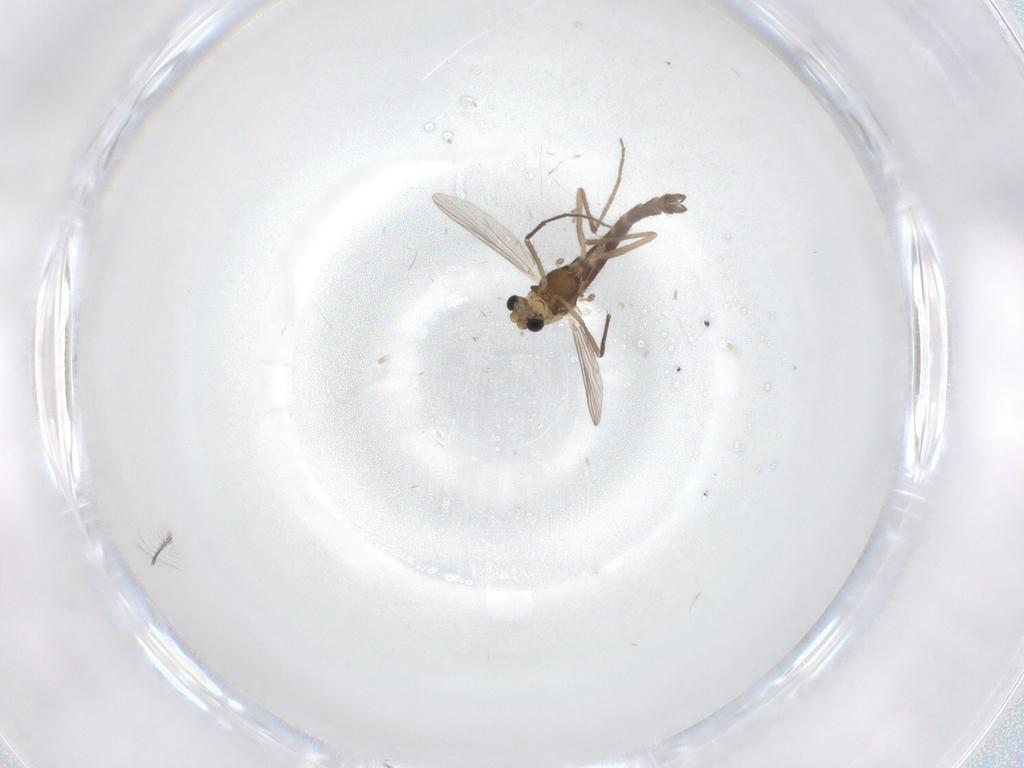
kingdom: Animalia
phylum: Arthropoda
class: Insecta
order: Diptera
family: Chironomidae
